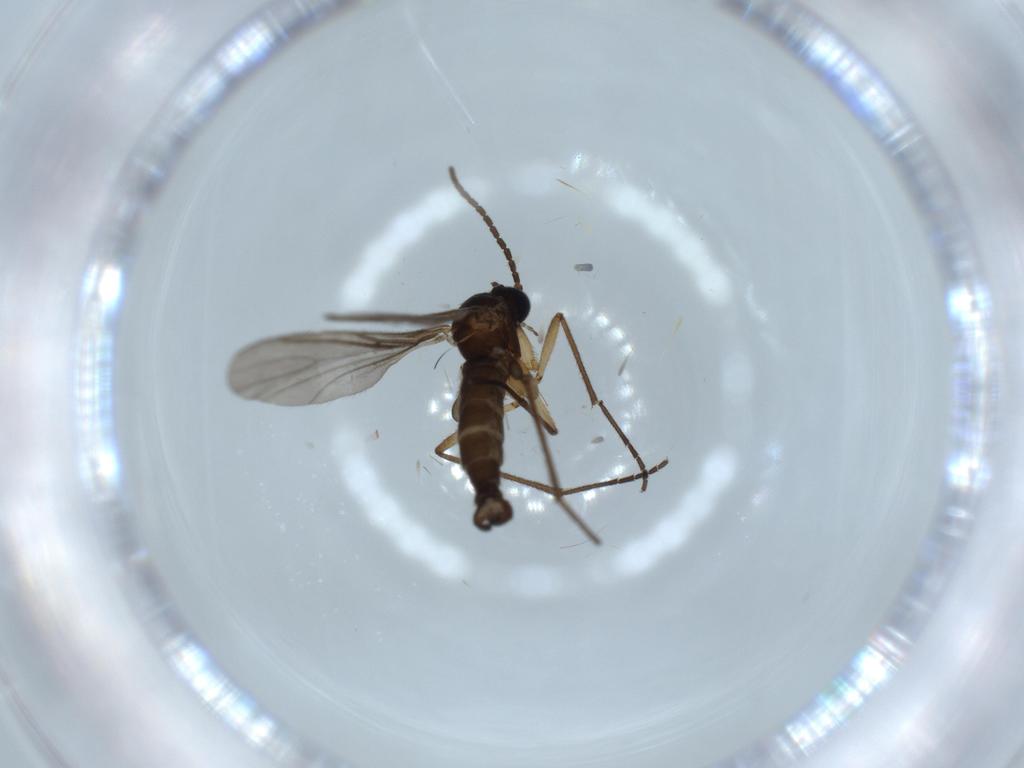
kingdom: Animalia
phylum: Arthropoda
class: Insecta
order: Diptera
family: Sciaridae
